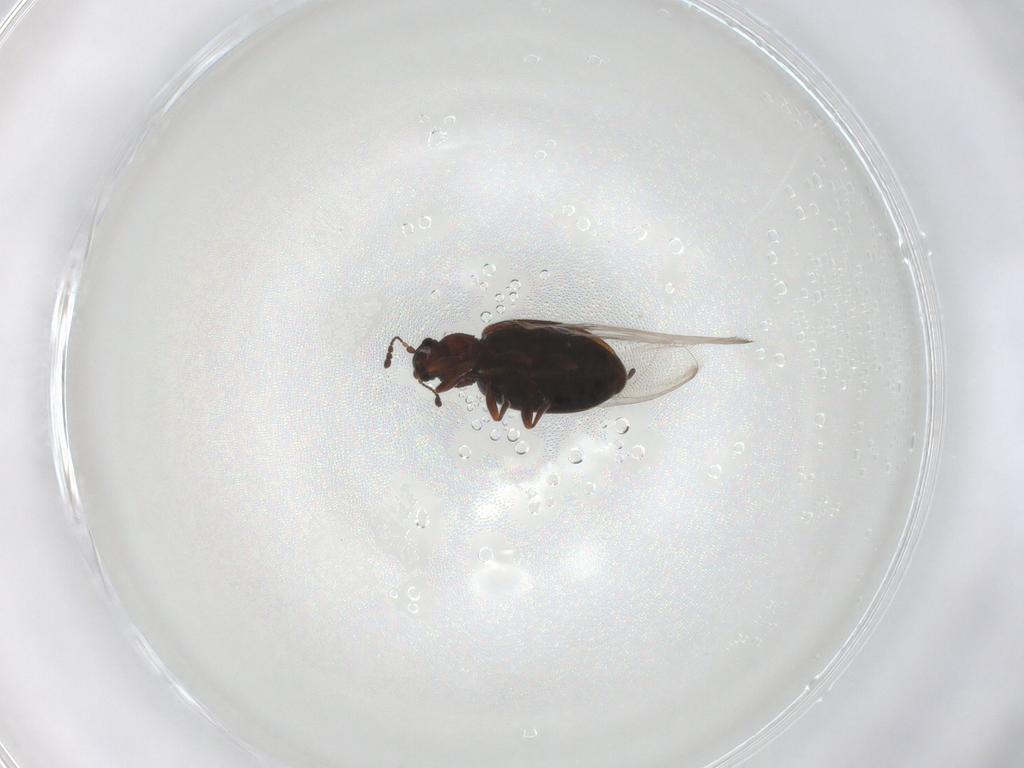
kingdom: Animalia
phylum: Arthropoda
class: Insecta
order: Coleoptera
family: Latridiidae
